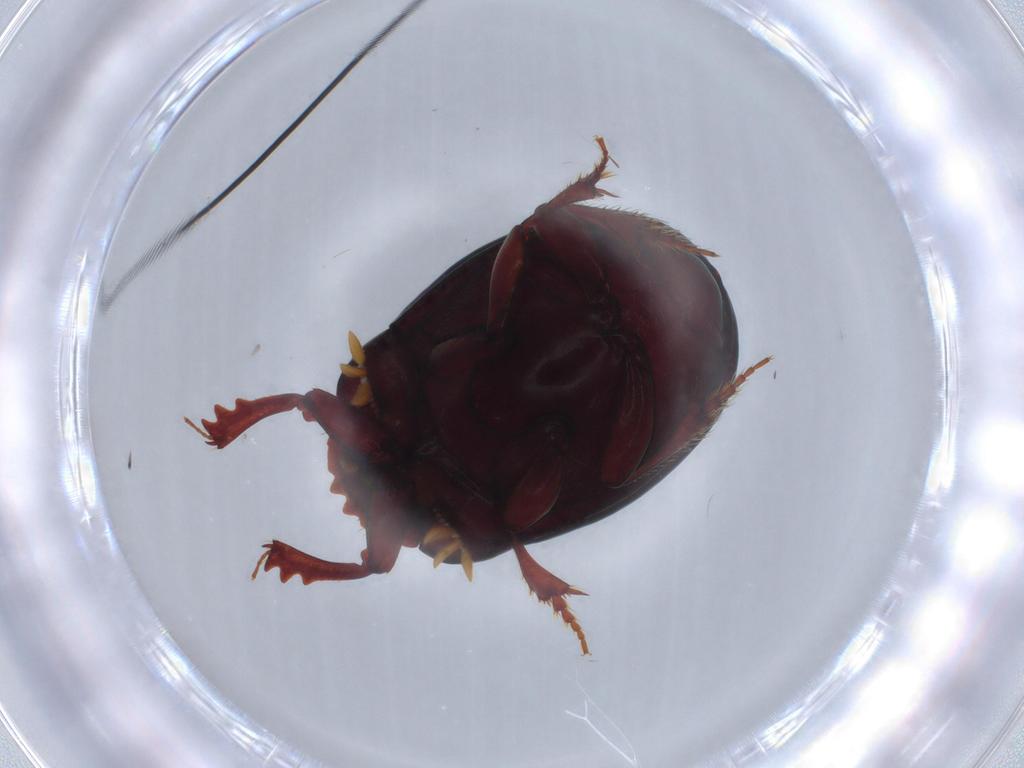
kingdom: Animalia
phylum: Arthropoda
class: Insecta
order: Coleoptera
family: Scarabaeidae
